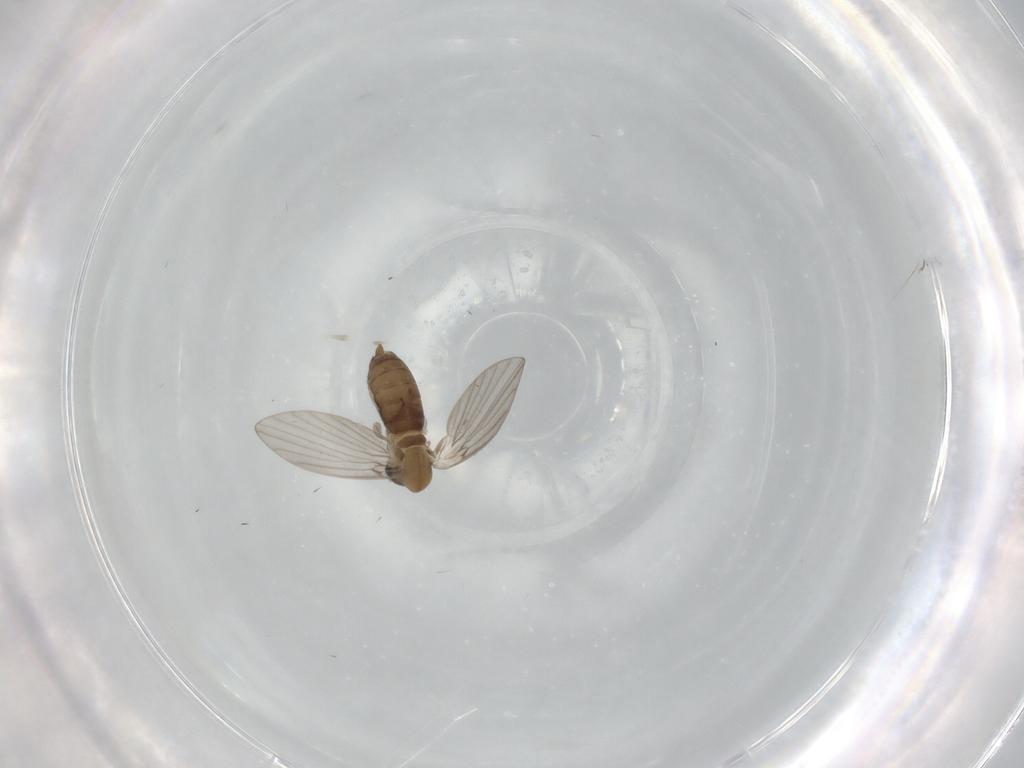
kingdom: Animalia
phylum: Arthropoda
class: Insecta
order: Diptera
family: Psychodidae
